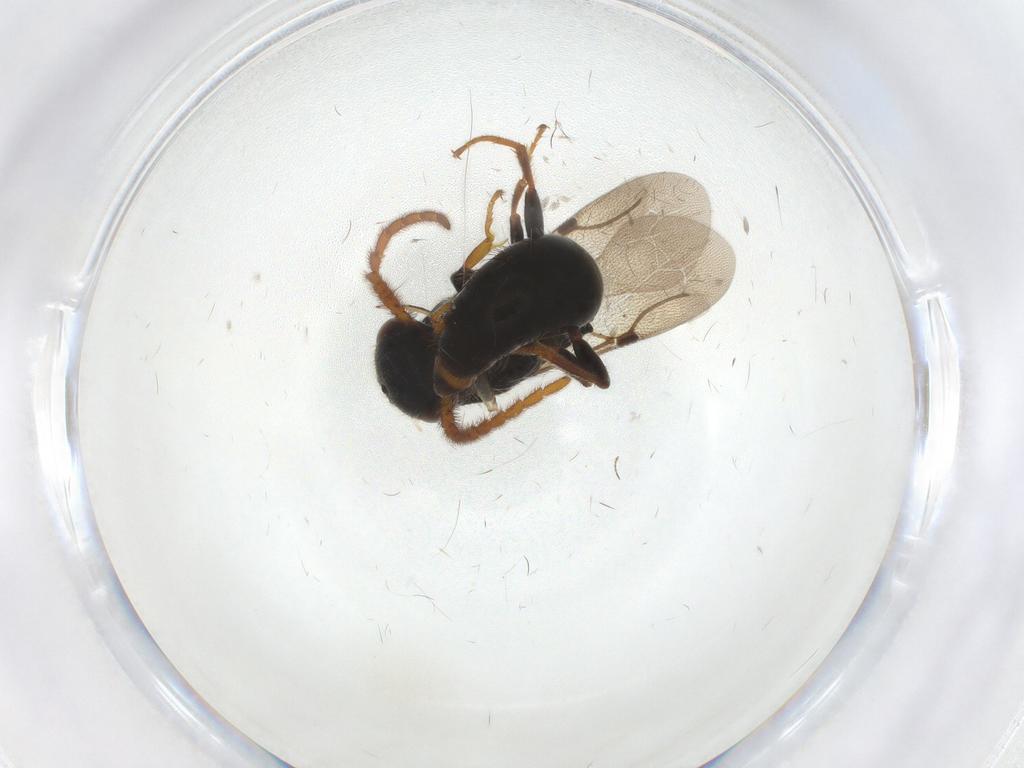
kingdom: Animalia
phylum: Arthropoda
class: Insecta
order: Hymenoptera
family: Bethylidae
